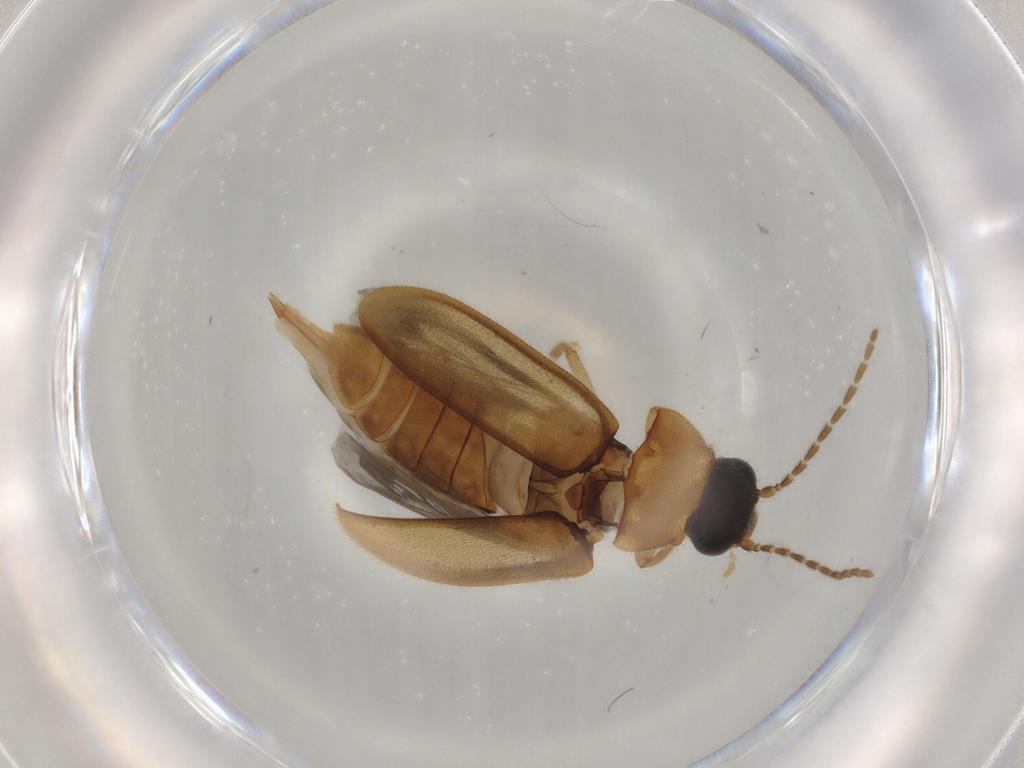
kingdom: Animalia
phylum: Arthropoda
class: Insecta
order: Coleoptera
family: Ptilodactylidae
